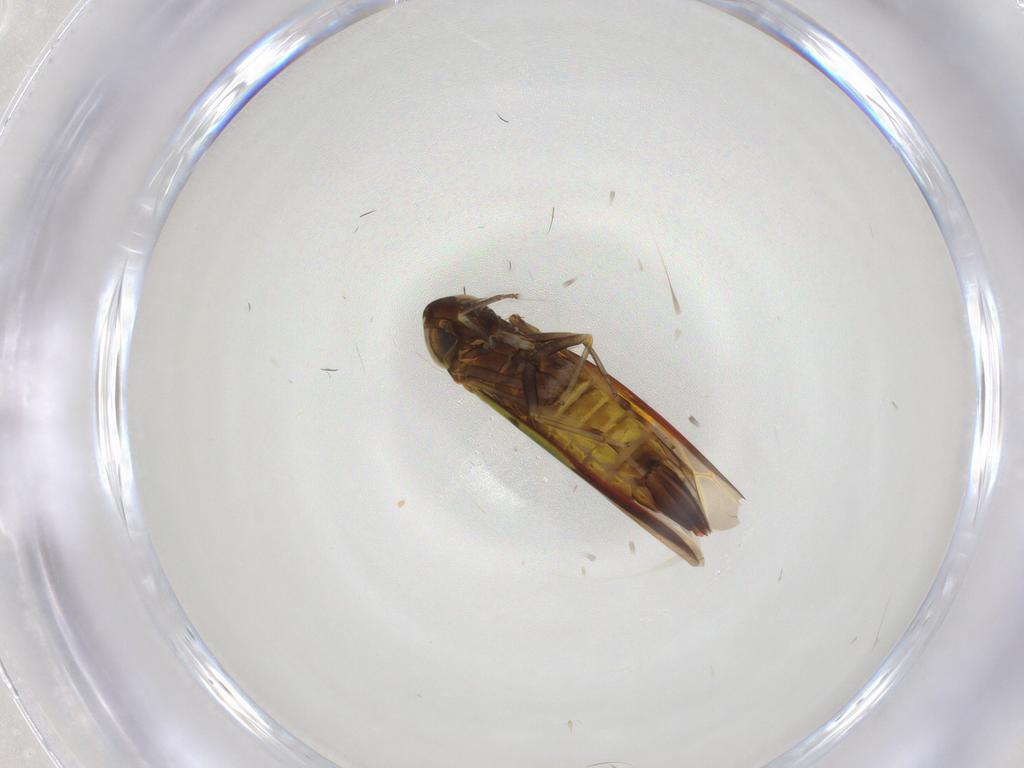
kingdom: Animalia
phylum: Arthropoda
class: Insecta
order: Hemiptera
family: Cicadellidae
